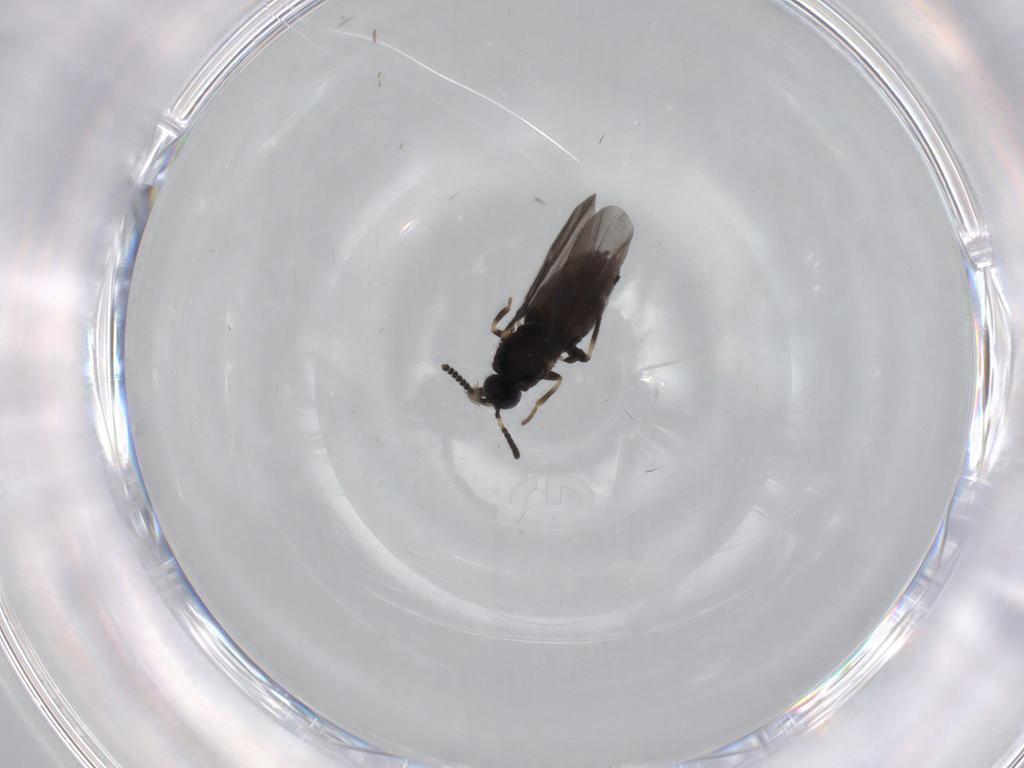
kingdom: Animalia
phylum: Arthropoda
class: Insecta
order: Diptera
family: Scatopsidae
